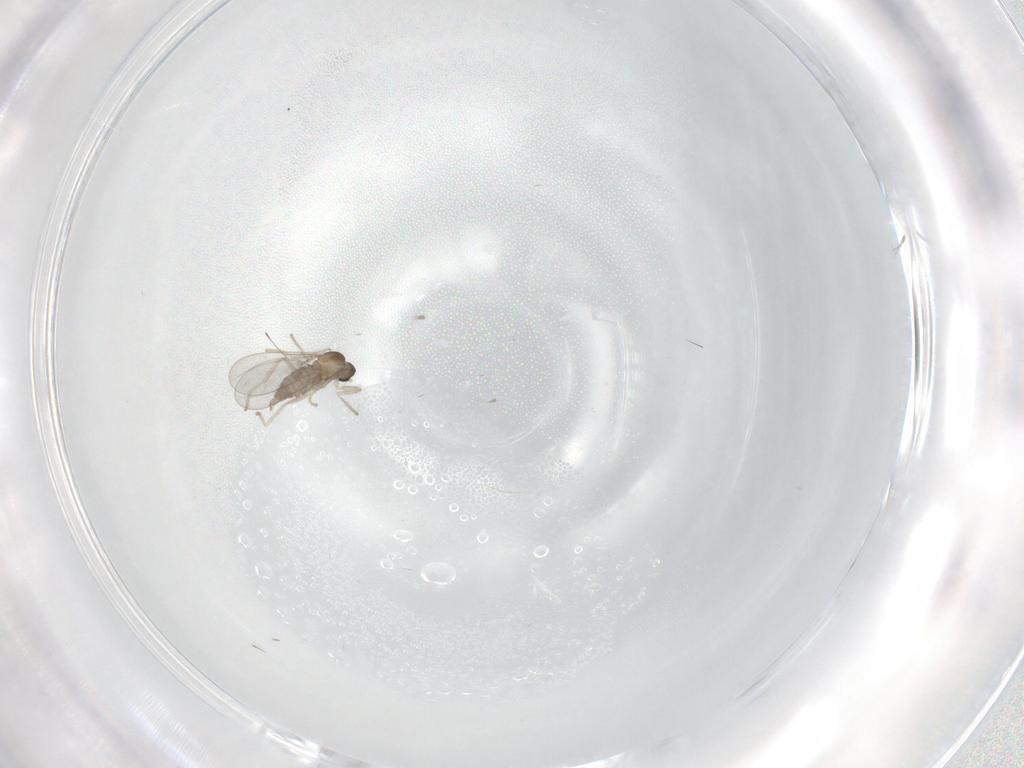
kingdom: Animalia
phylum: Arthropoda
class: Insecta
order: Diptera
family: Cecidomyiidae
